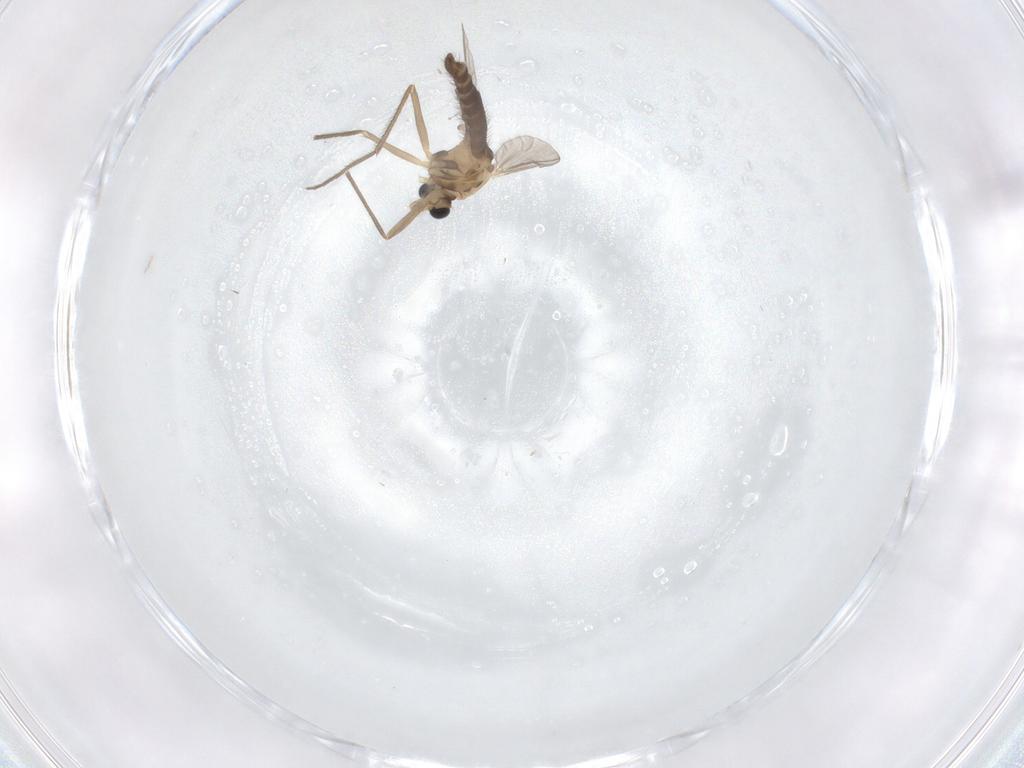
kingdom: Animalia
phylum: Arthropoda
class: Insecta
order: Diptera
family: Chironomidae
